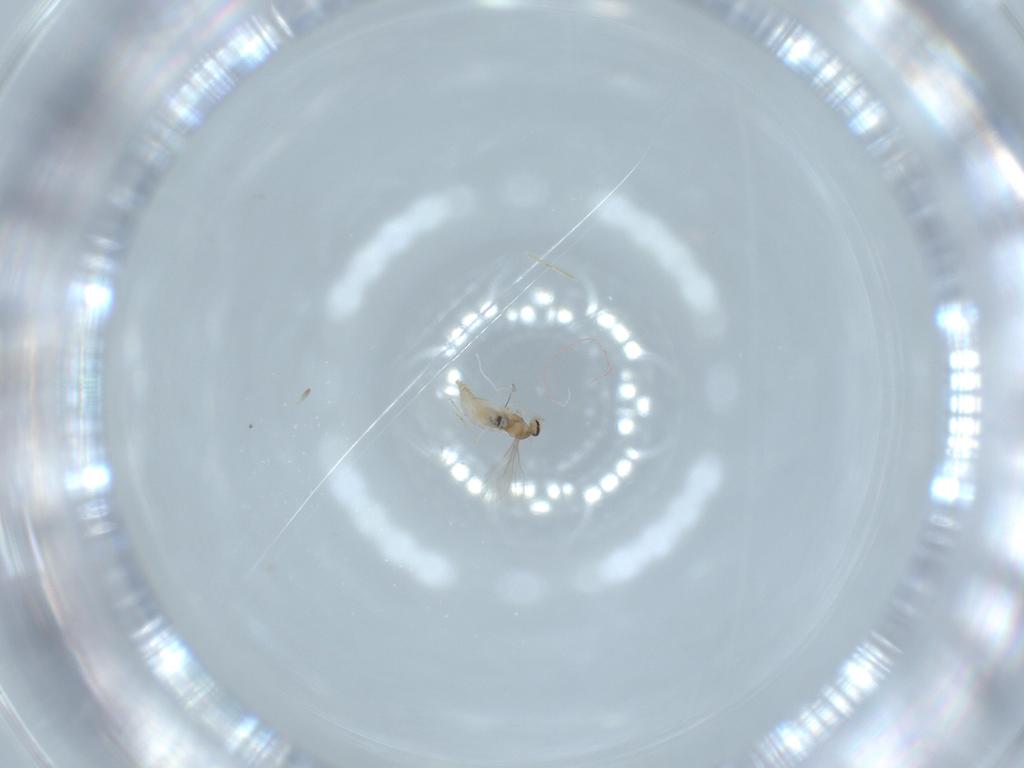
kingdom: Animalia
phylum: Arthropoda
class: Insecta
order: Diptera
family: Cecidomyiidae
